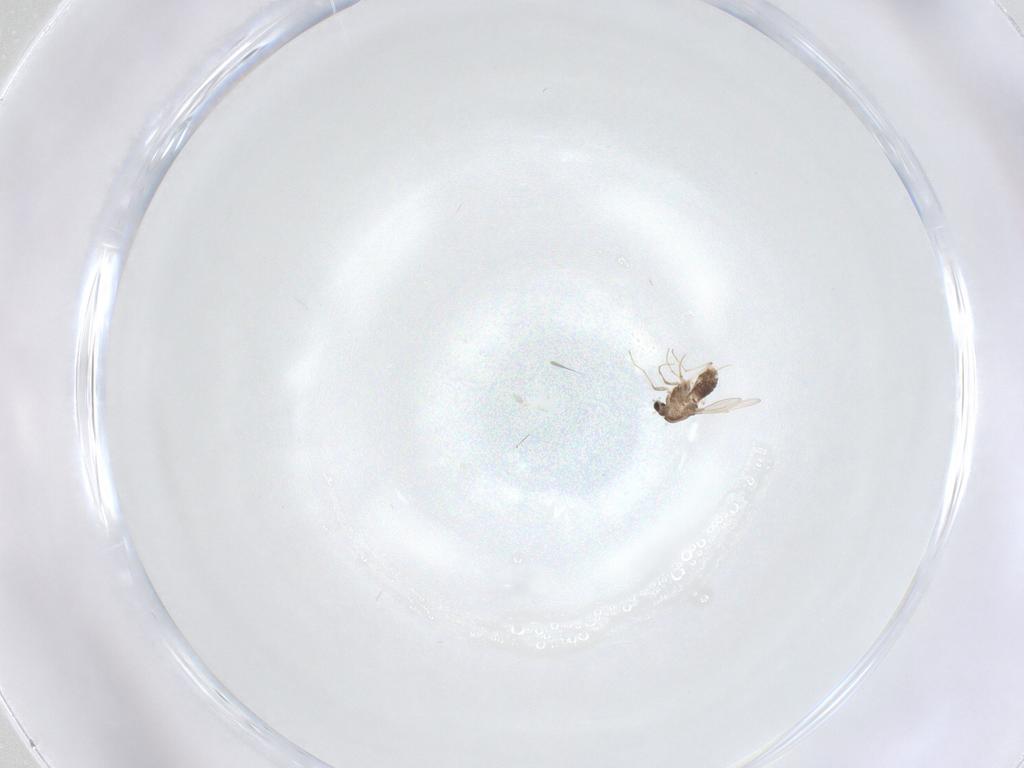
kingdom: Animalia
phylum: Arthropoda
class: Insecta
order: Diptera
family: Chironomidae
